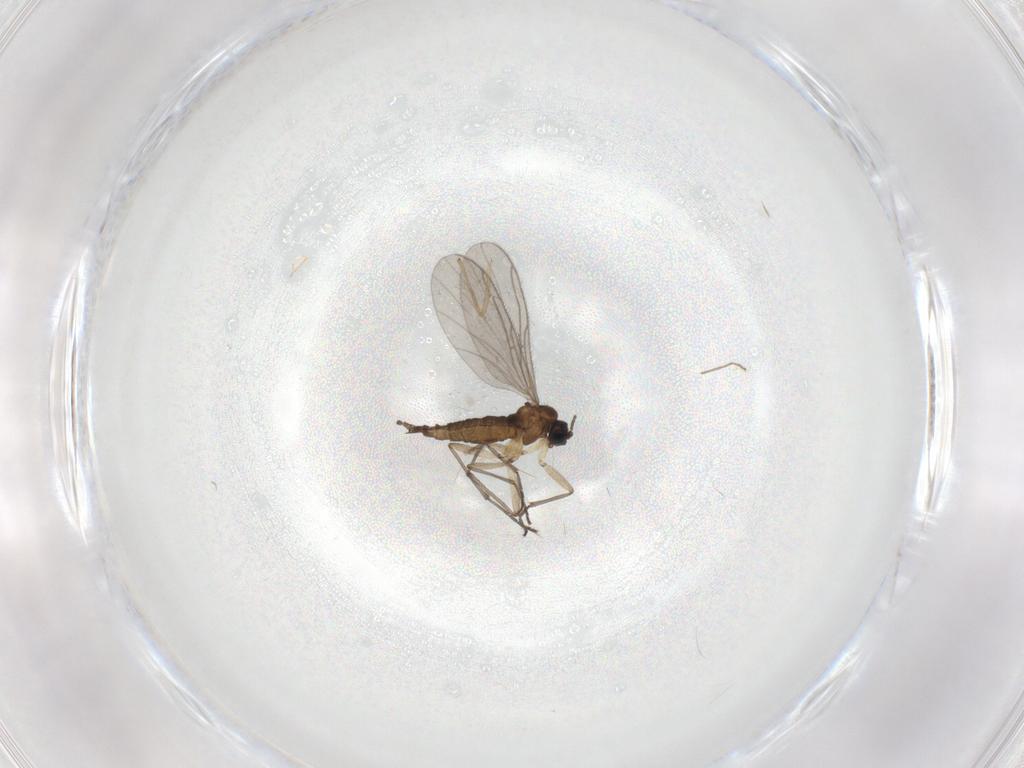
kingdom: Animalia
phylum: Arthropoda
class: Insecta
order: Diptera
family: Sciaridae
